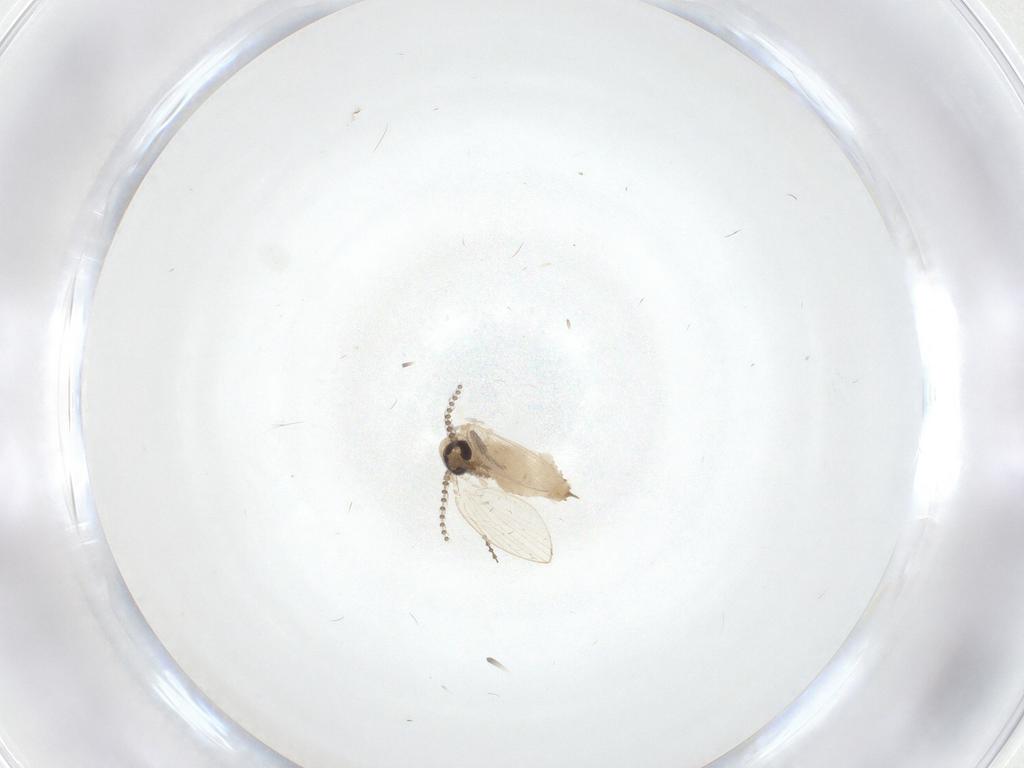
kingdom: Animalia
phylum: Arthropoda
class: Insecta
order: Diptera
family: Psychodidae
